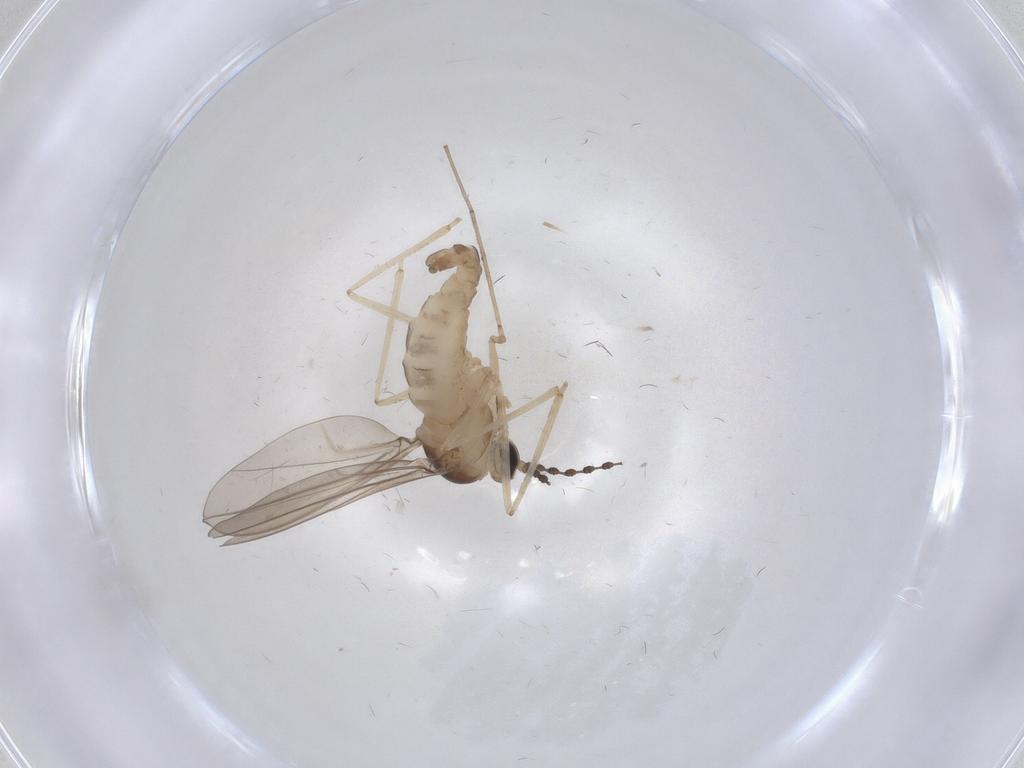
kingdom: Animalia
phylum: Arthropoda
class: Insecta
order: Diptera
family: Cecidomyiidae
